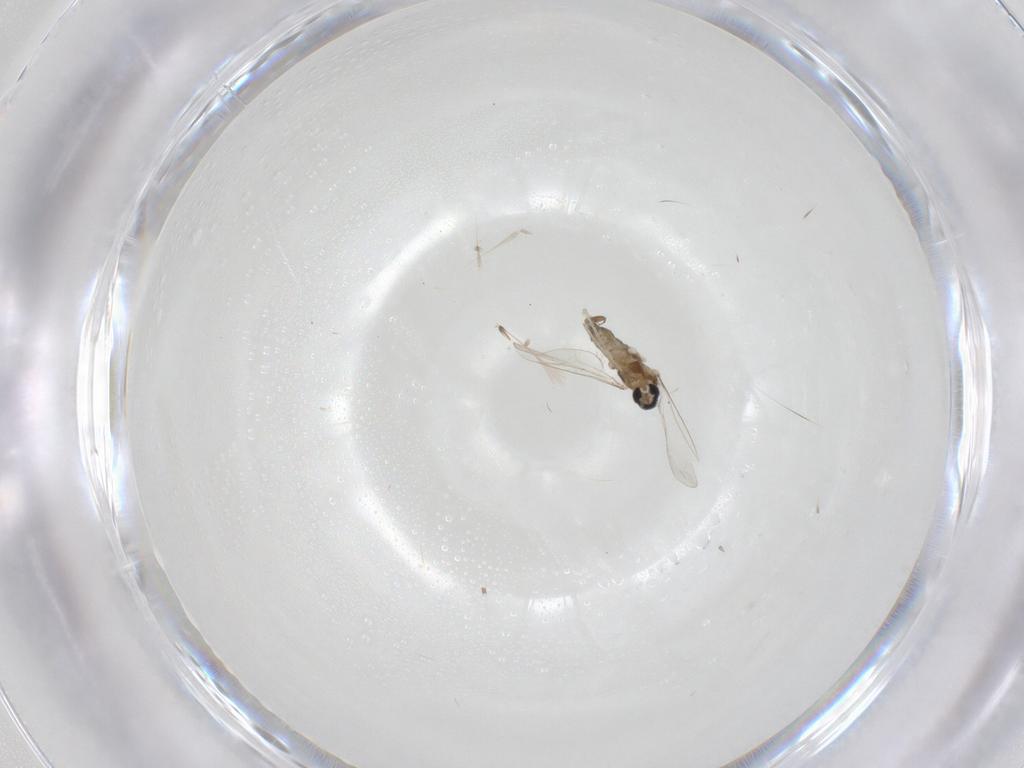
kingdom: Animalia
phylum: Arthropoda
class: Insecta
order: Diptera
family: Cecidomyiidae
